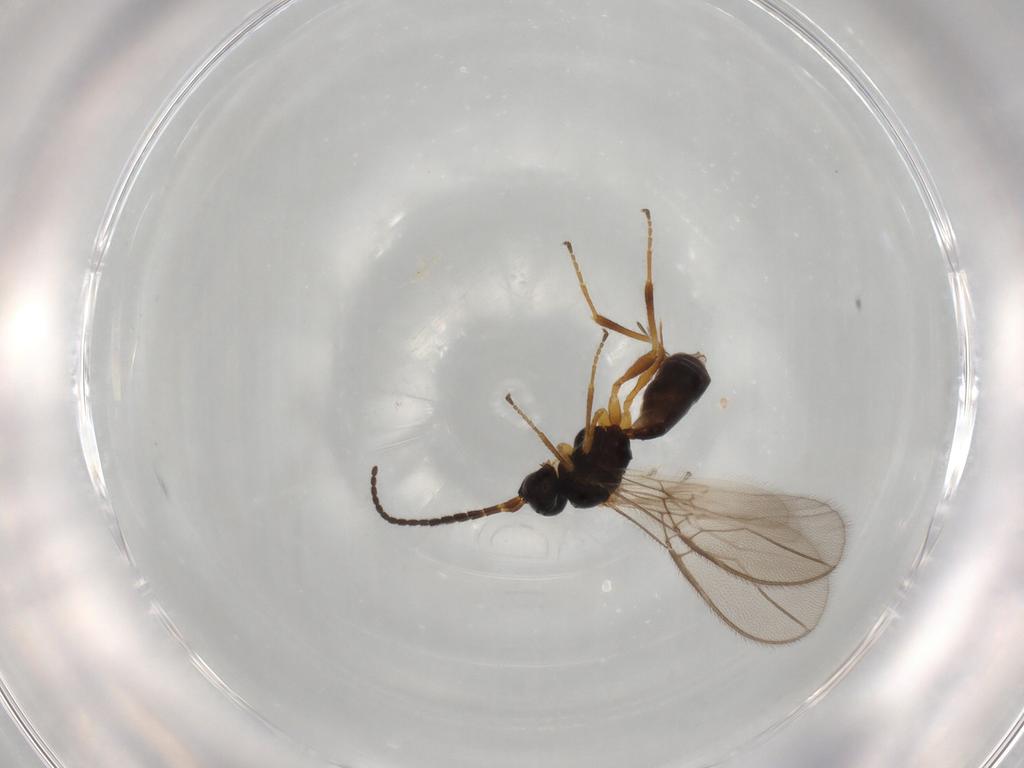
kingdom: Animalia
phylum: Arthropoda
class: Insecta
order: Hymenoptera
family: Braconidae
